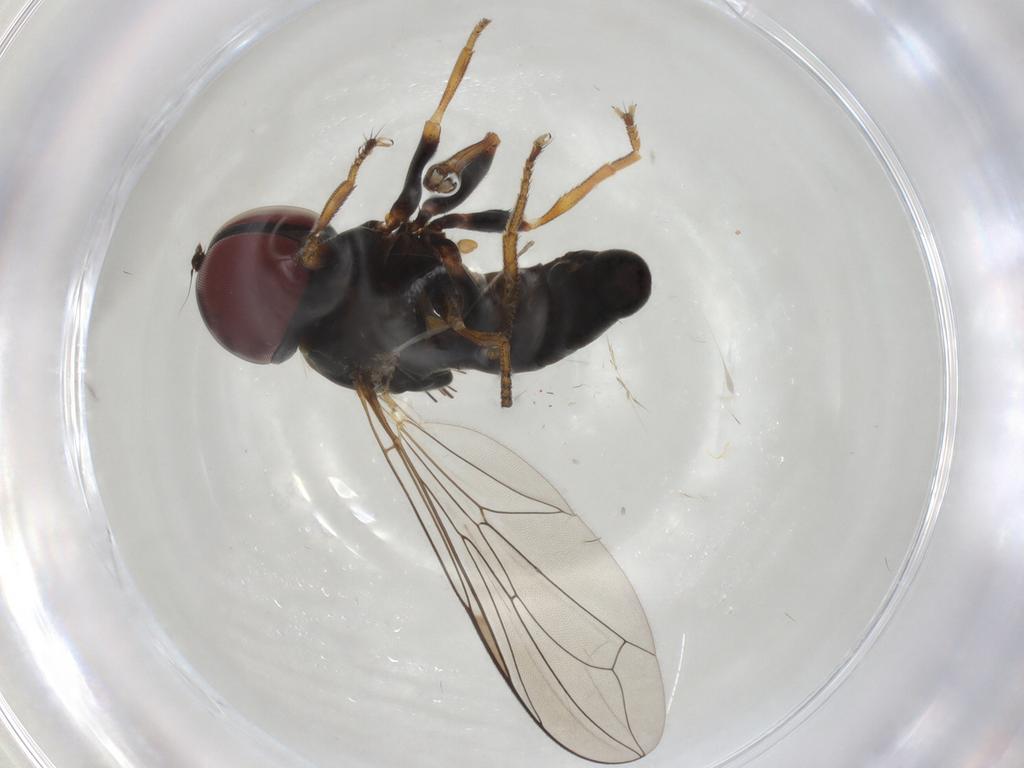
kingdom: Animalia
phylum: Arthropoda
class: Insecta
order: Diptera
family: Pipunculidae
